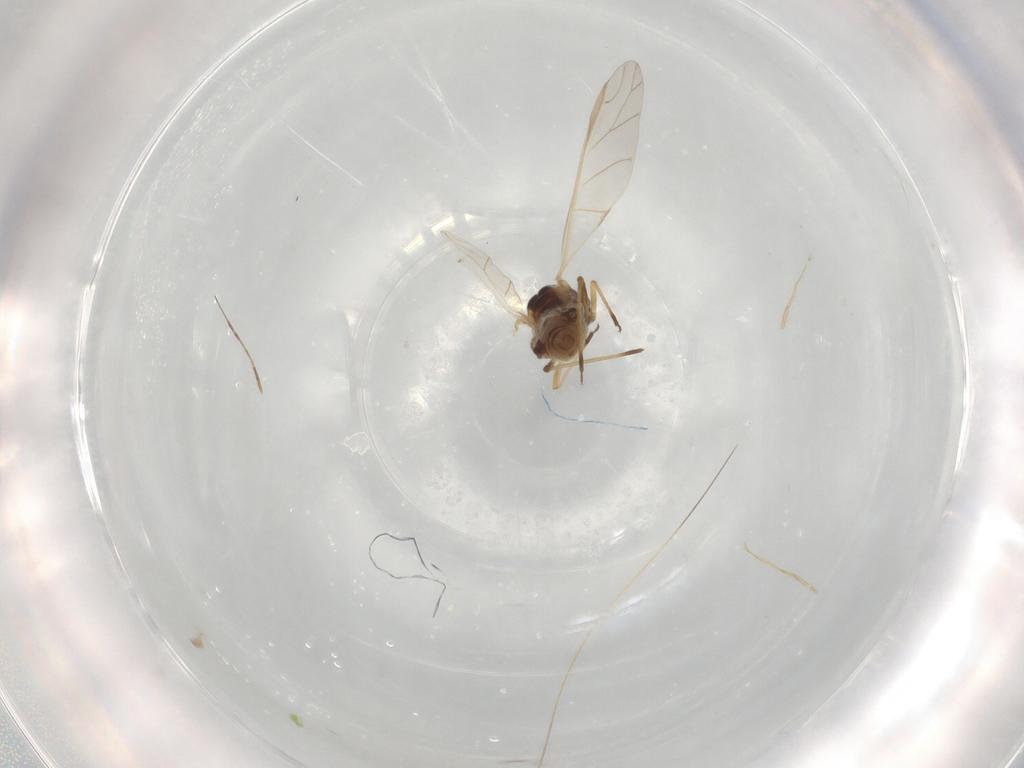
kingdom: Animalia
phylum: Arthropoda
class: Insecta
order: Hemiptera
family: Aphididae
